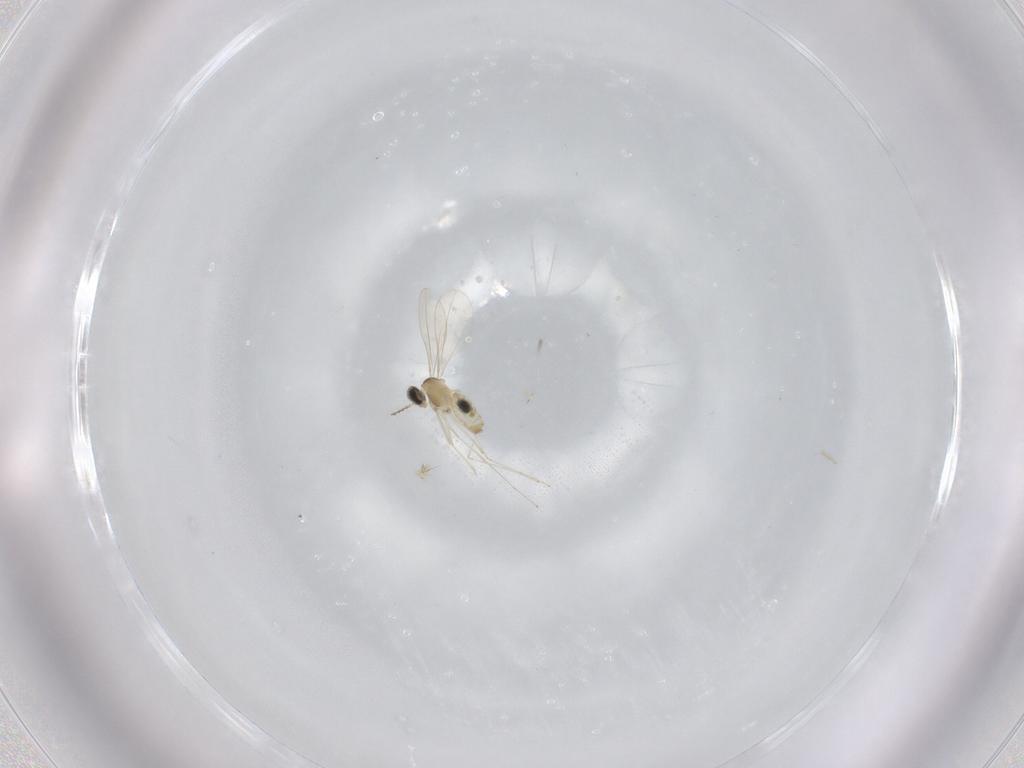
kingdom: Animalia
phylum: Arthropoda
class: Insecta
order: Diptera
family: Cecidomyiidae
